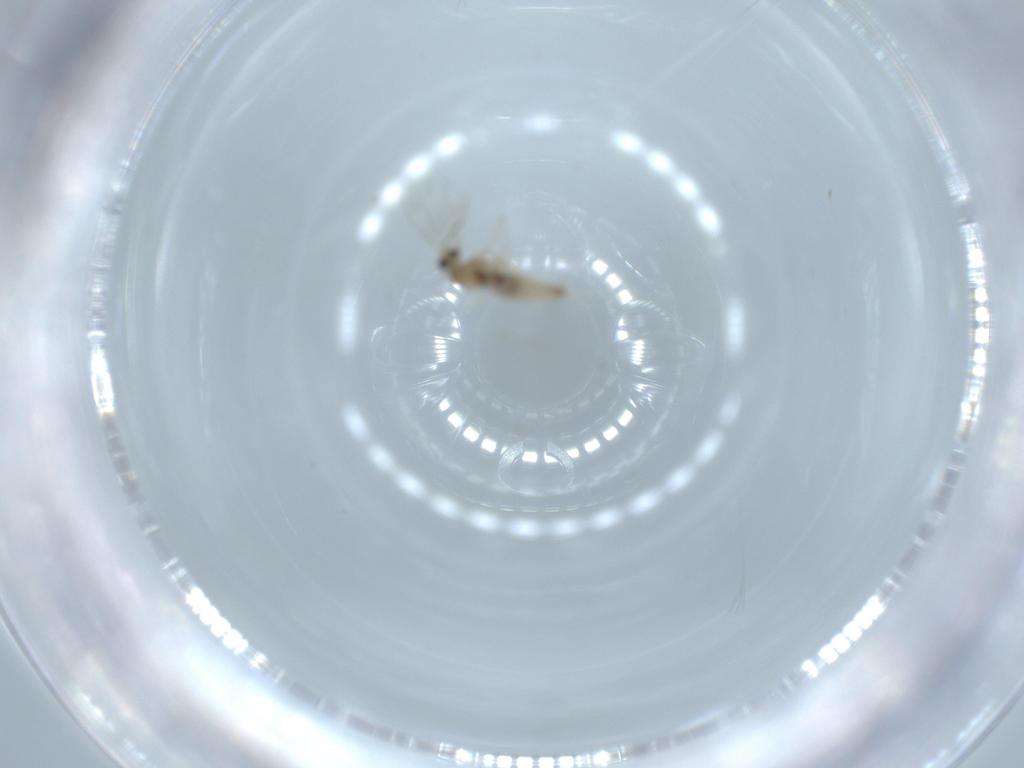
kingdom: Animalia
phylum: Arthropoda
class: Insecta
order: Diptera
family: Cecidomyiidae
